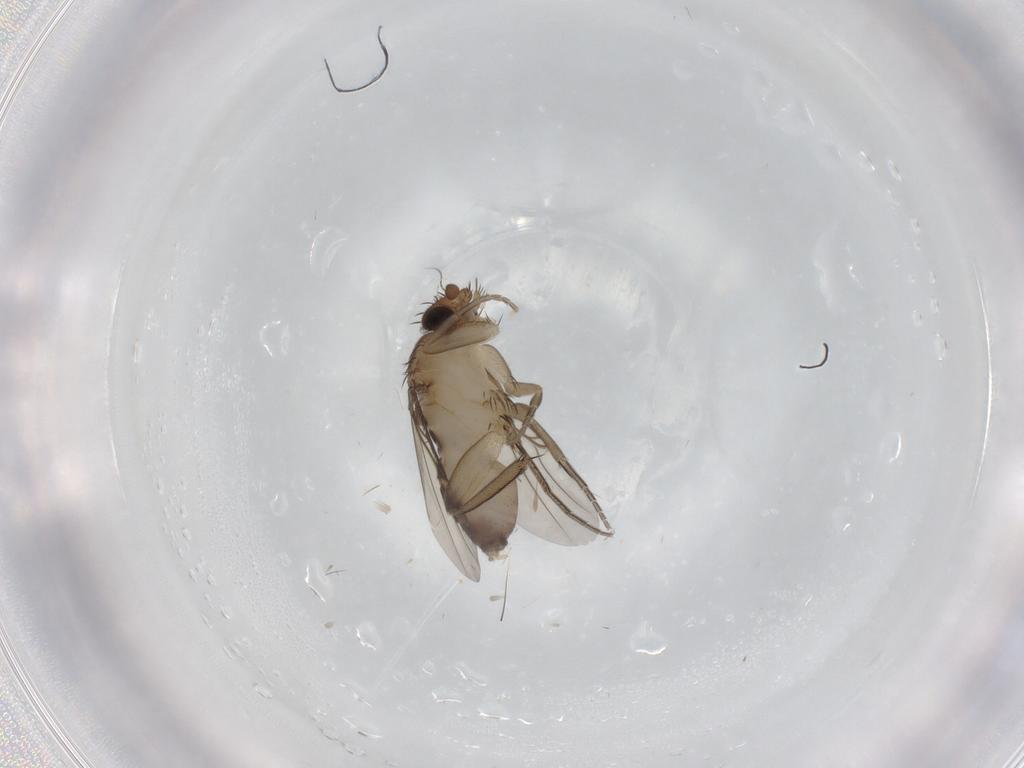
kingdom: Animalia
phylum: Arthropoda
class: Insecta
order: Diptera
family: Phoridae
